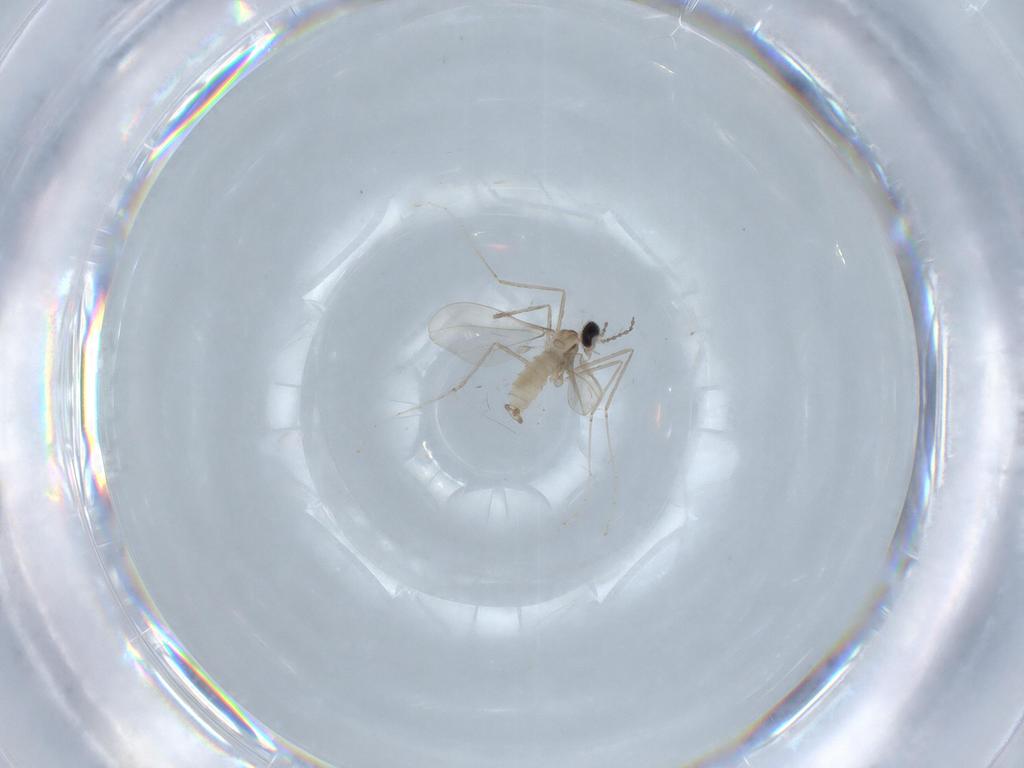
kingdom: Animalia
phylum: Arthropoda
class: Insecta
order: Diptera
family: Cecidomyiidae
